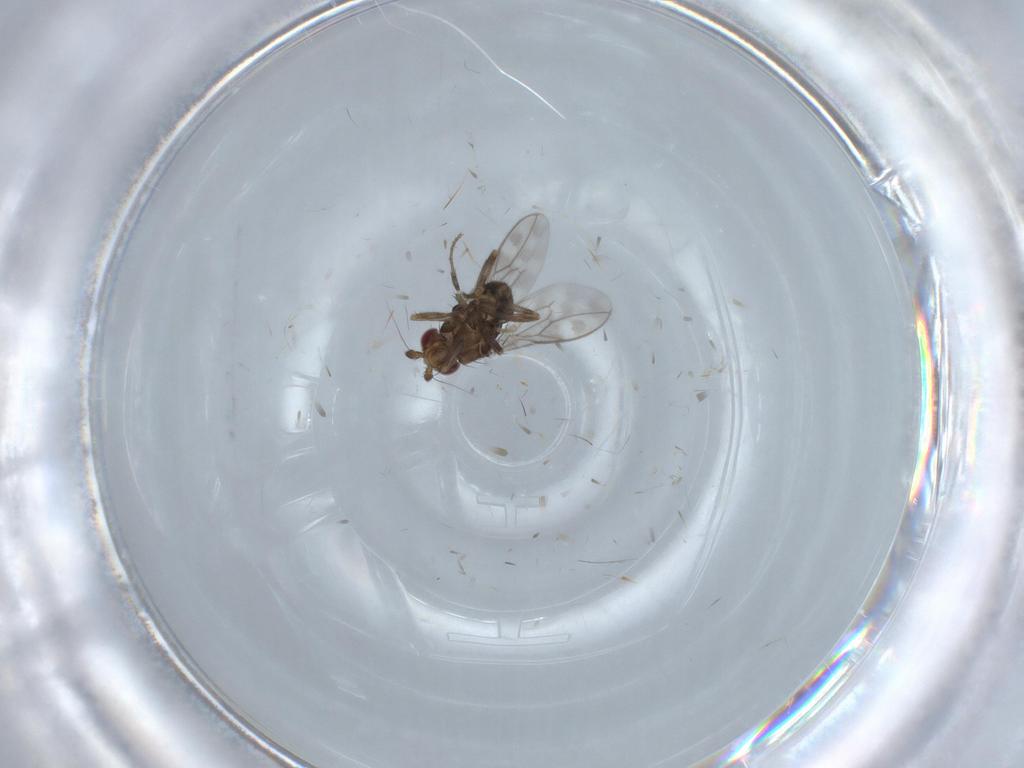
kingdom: Animalia
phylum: Arthropoda
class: Insecta
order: Diptera
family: Sphaeroceridae
